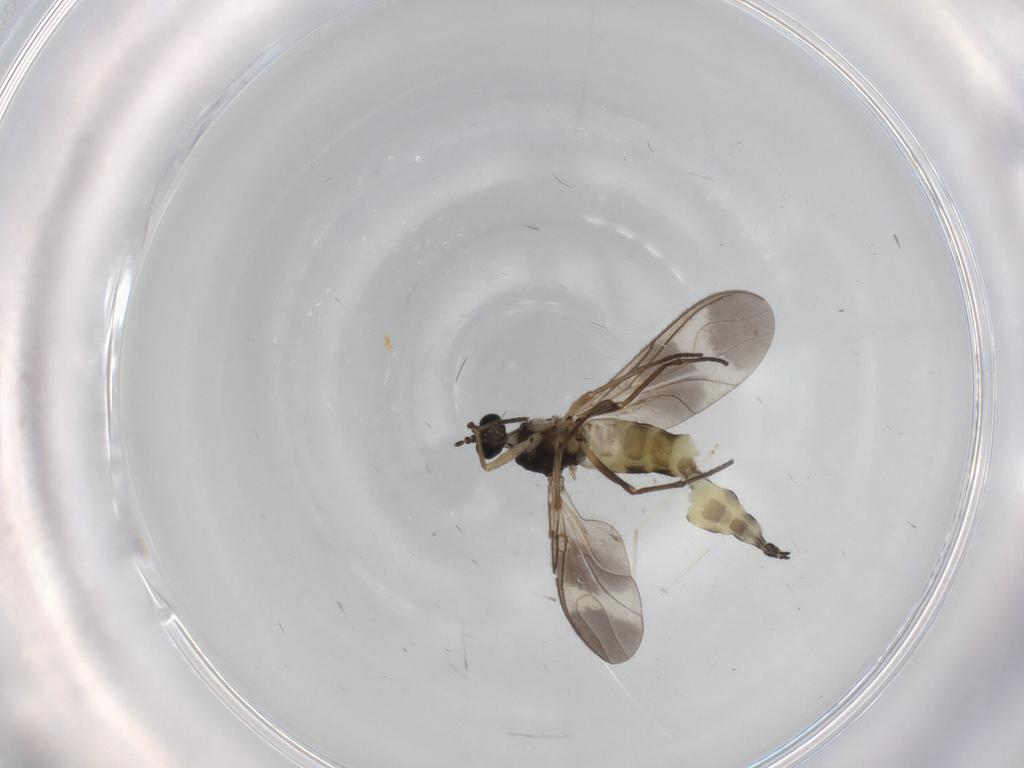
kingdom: Animalia
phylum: Arthropoda
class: Insecta
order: Diptera
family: Sciaridae
